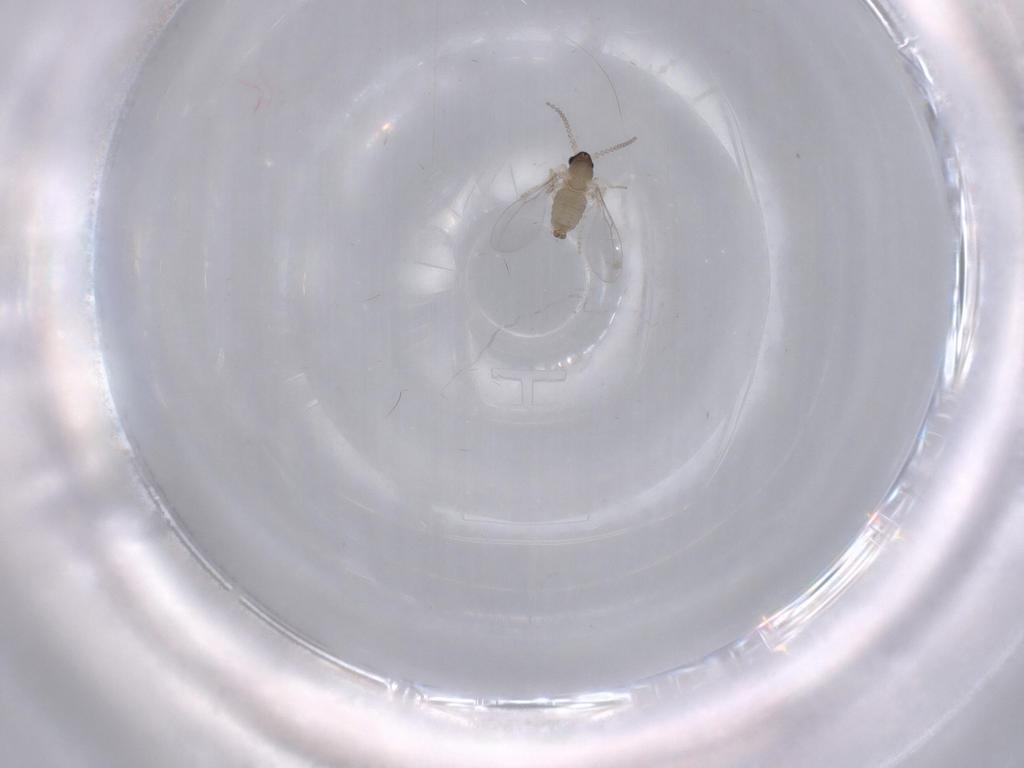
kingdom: Animalia
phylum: Arthropoda
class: Insecta
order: Diptera
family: Cecidomyiidae
